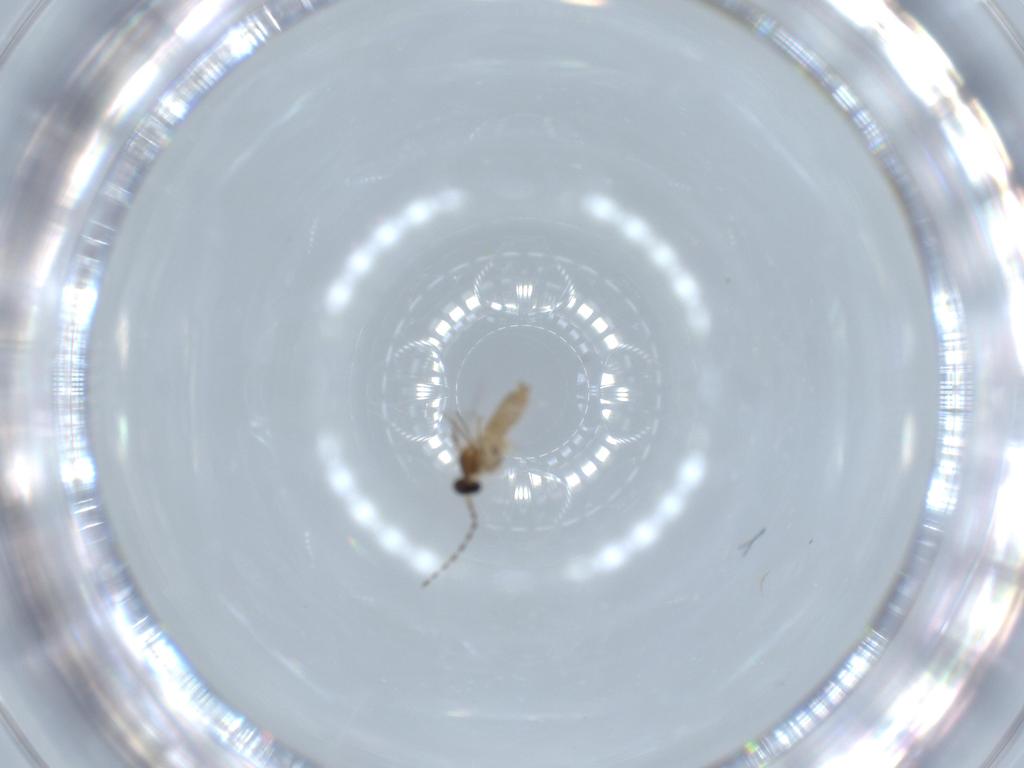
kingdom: Animalia
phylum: Arthropoda
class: Insecta
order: Diptera
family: Cecidomyiidae
